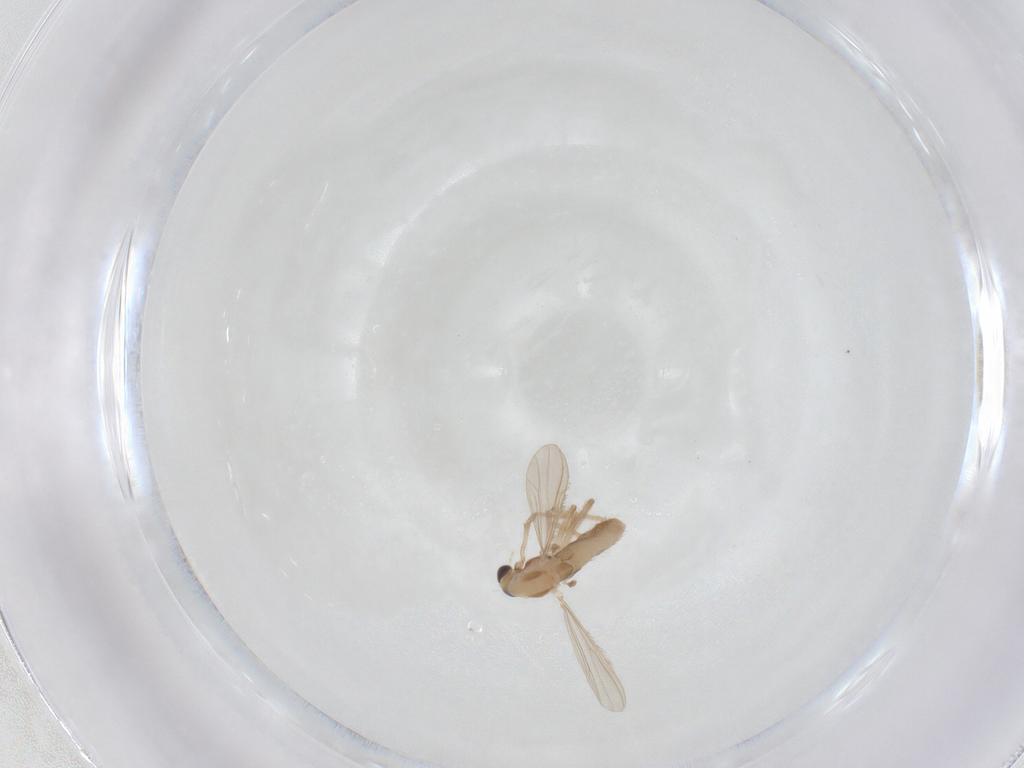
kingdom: Animalia
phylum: Arthropoda
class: Insecta
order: Diptera
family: Chironomidae
